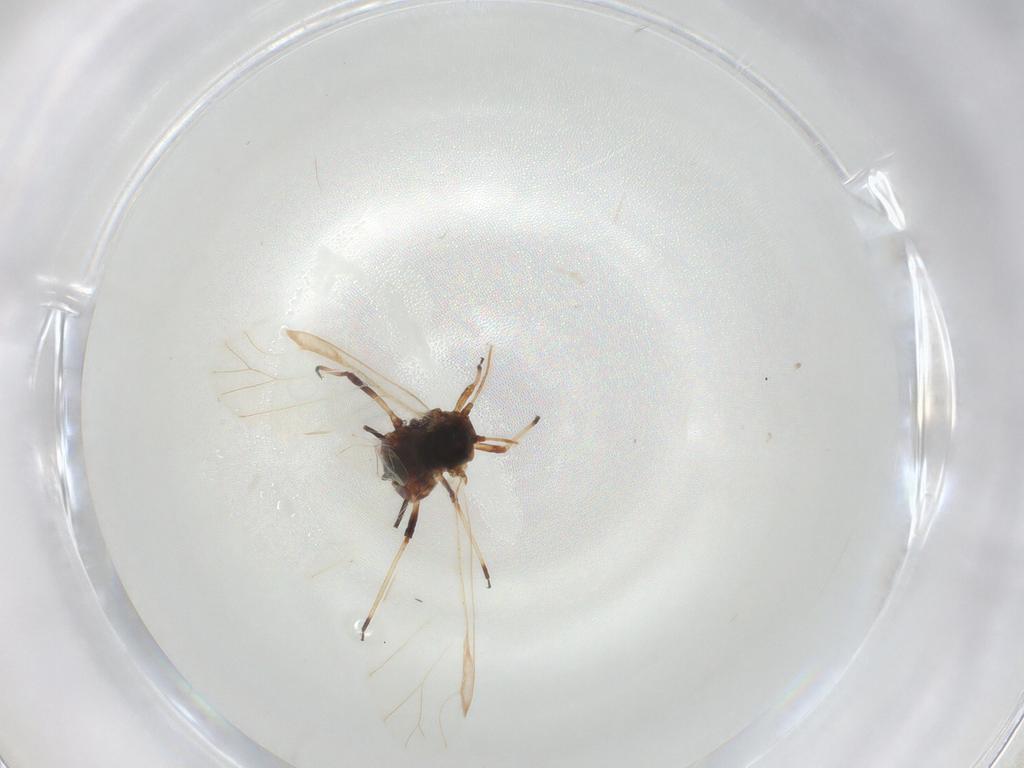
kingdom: Animalia
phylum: Arthropoda
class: Insecta
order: Hemiptera
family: Aphididae
